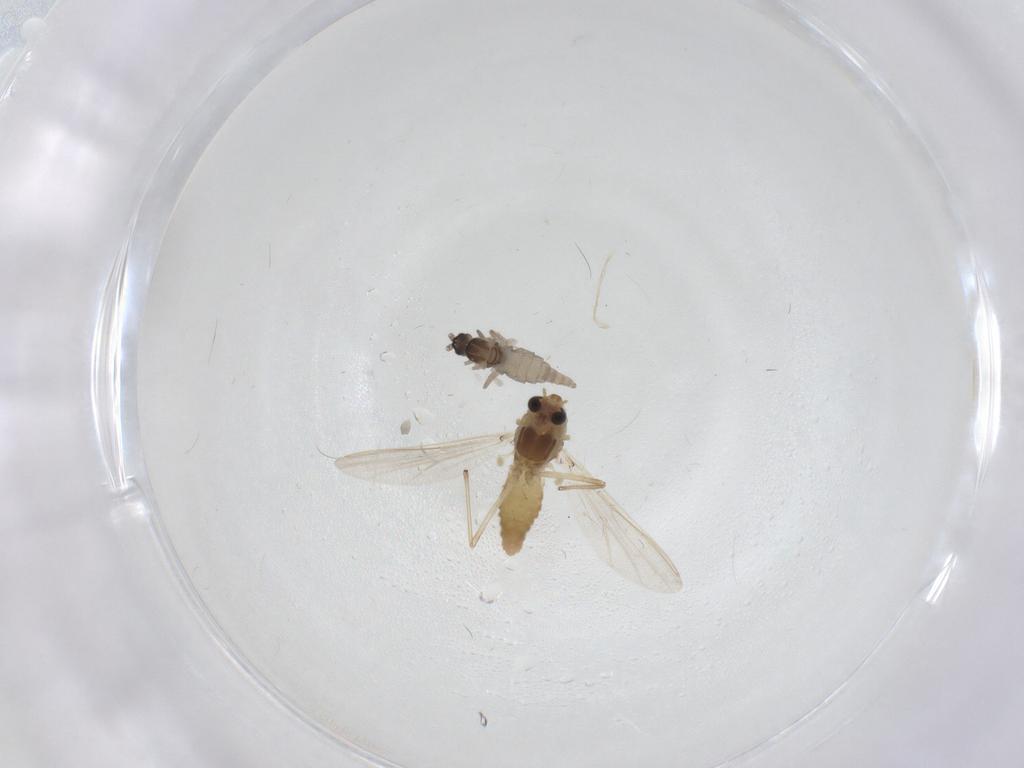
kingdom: Animalia
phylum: Arthropoda
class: Insecta
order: Diptera
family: Cecidomyiidae
